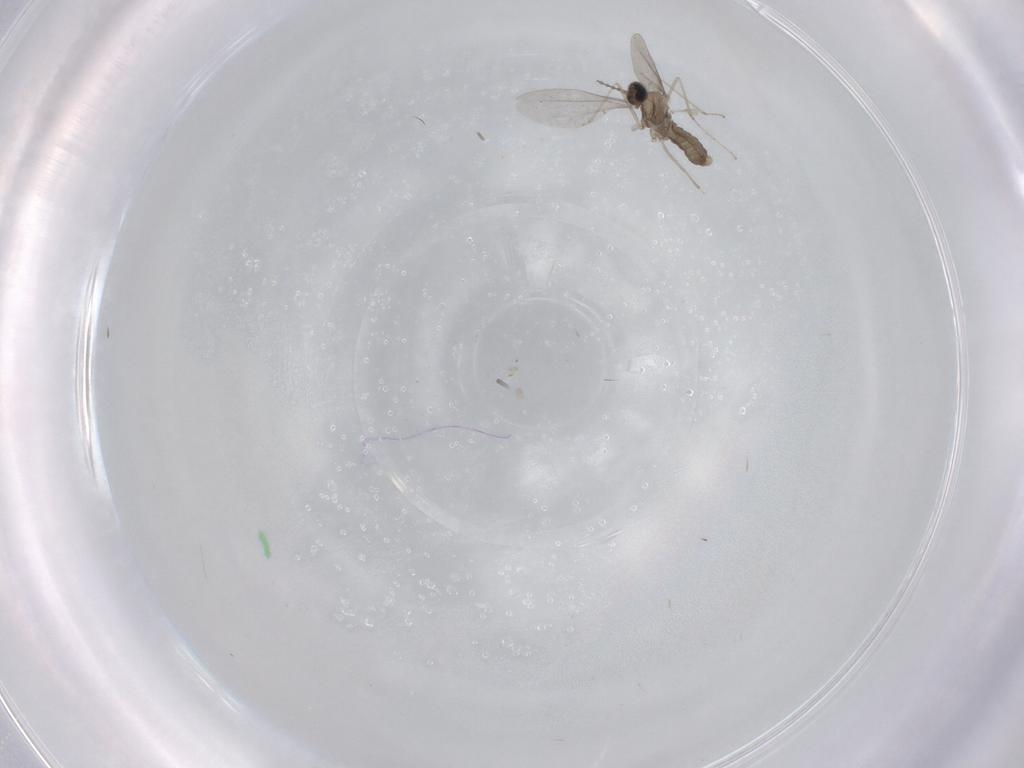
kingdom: Animalia
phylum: Arthropoda
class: Insecta
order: Diptera
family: Cecidomyiidae
